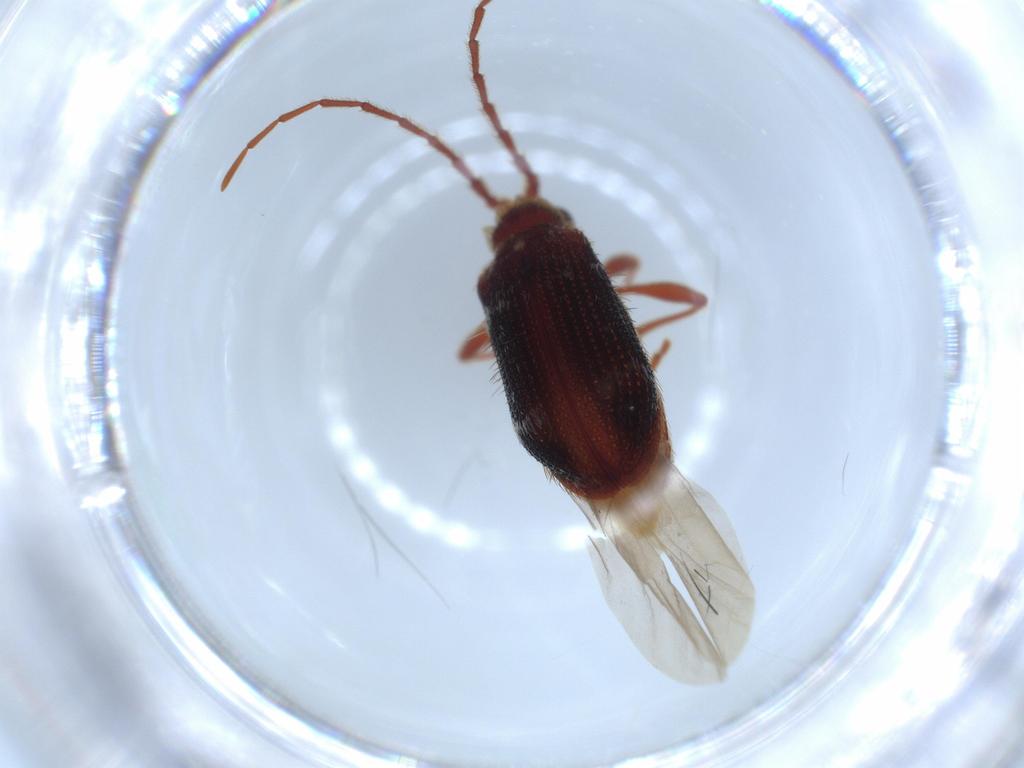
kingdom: Animalia
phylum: Arthropoda
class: Insecta
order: Coleoptera
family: Ptinidae
